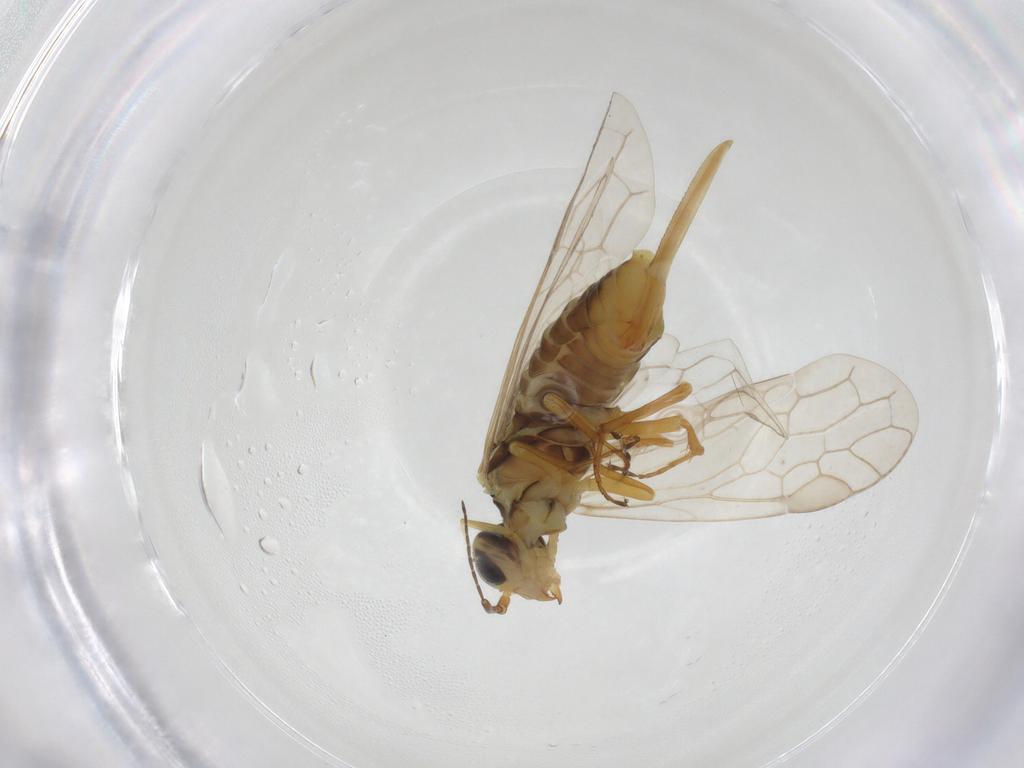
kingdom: Animalia
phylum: Arthropoda
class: Insecta
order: Hymenoptera
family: Xyelidae
